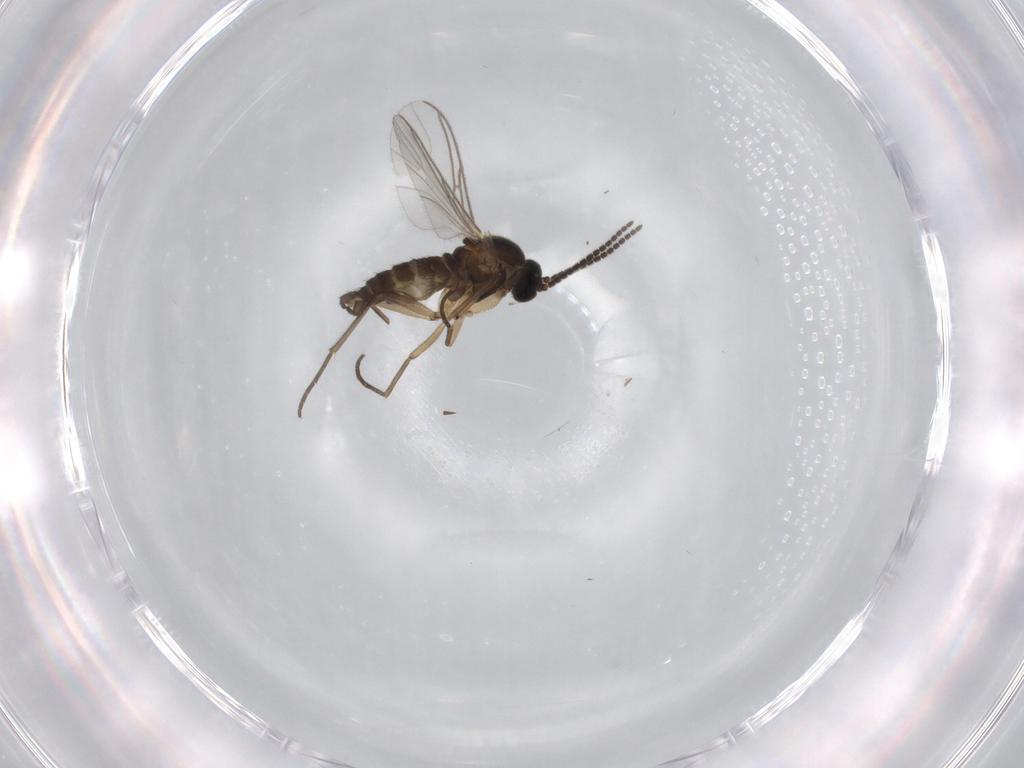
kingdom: Animalia
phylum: Arthropoda
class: Insecta
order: Diptera
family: Sciaridae
